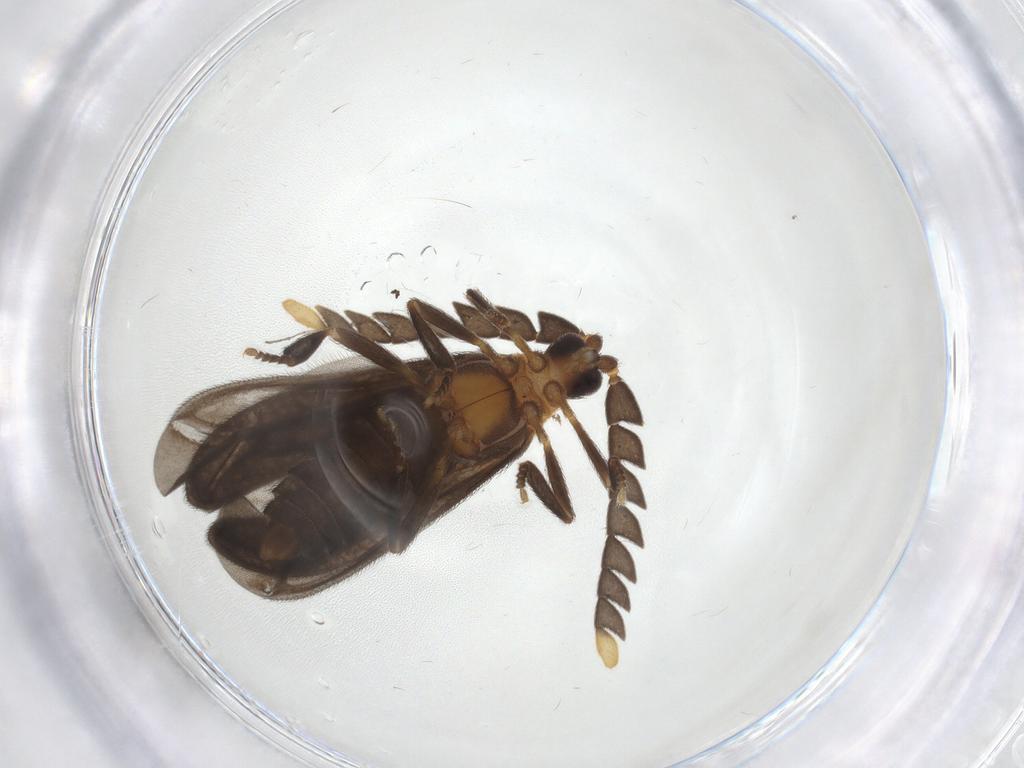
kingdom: Animalia
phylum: Arthropoda
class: Insecta
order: Coleoptera
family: Lycidae
